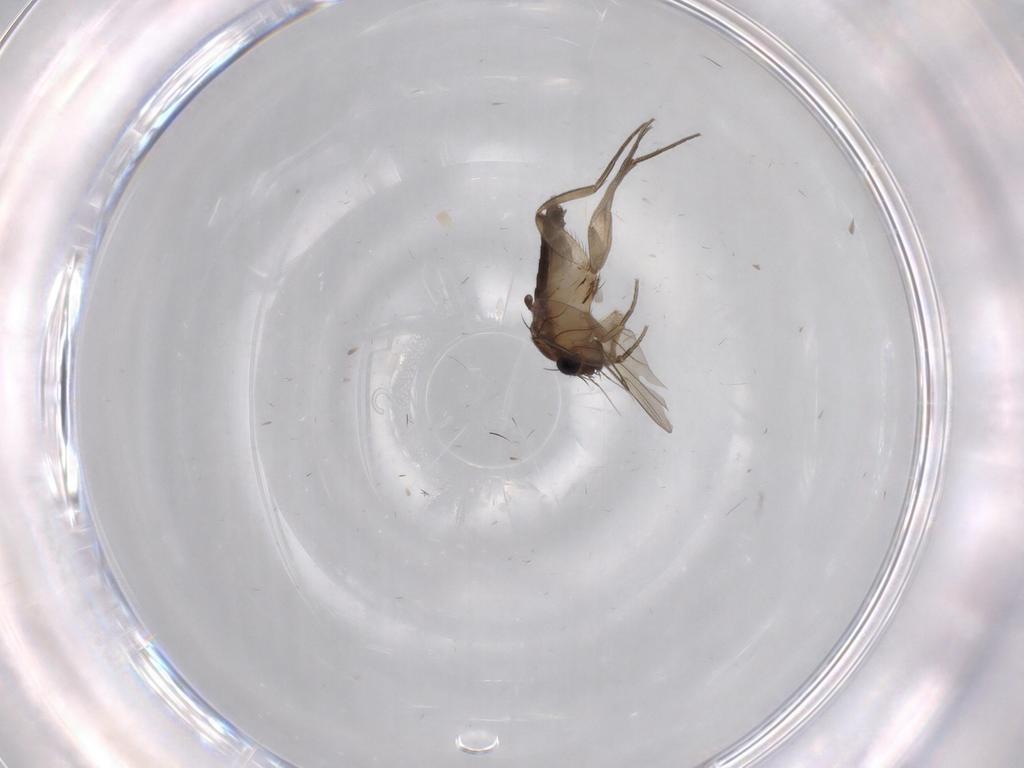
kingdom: Animalia
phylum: Arthropoda
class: Insecta
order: Diptera
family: Phoridae
